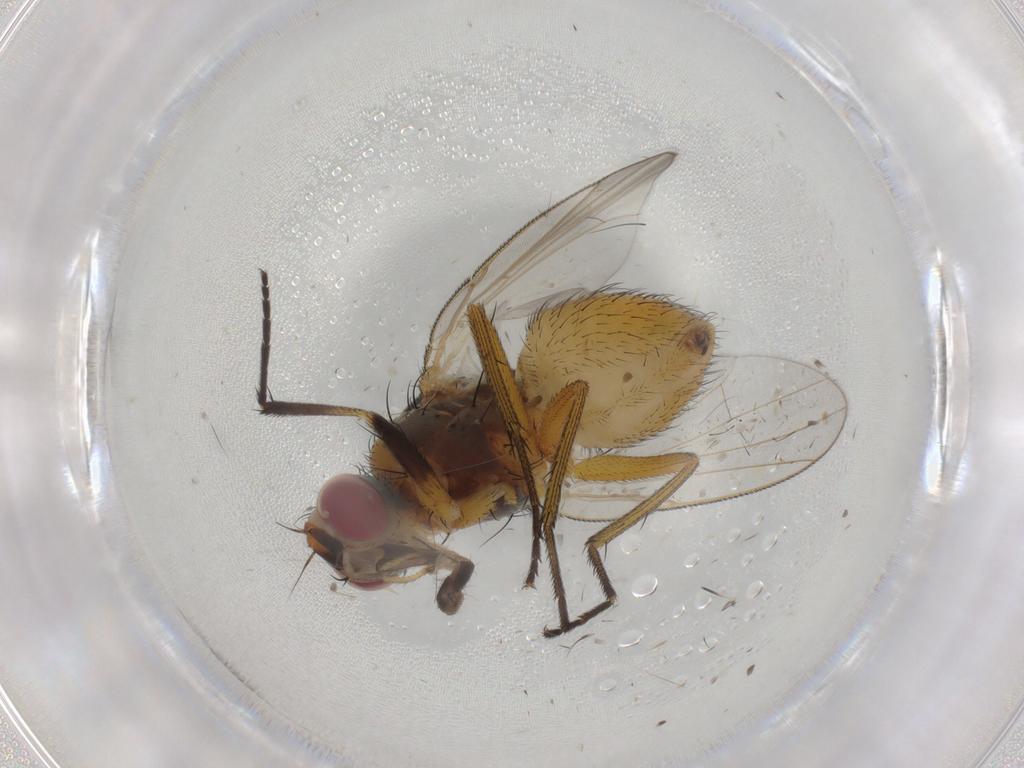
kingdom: Animalia
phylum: Arthropoda
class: Insecta
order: Diptera
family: Muscidae
